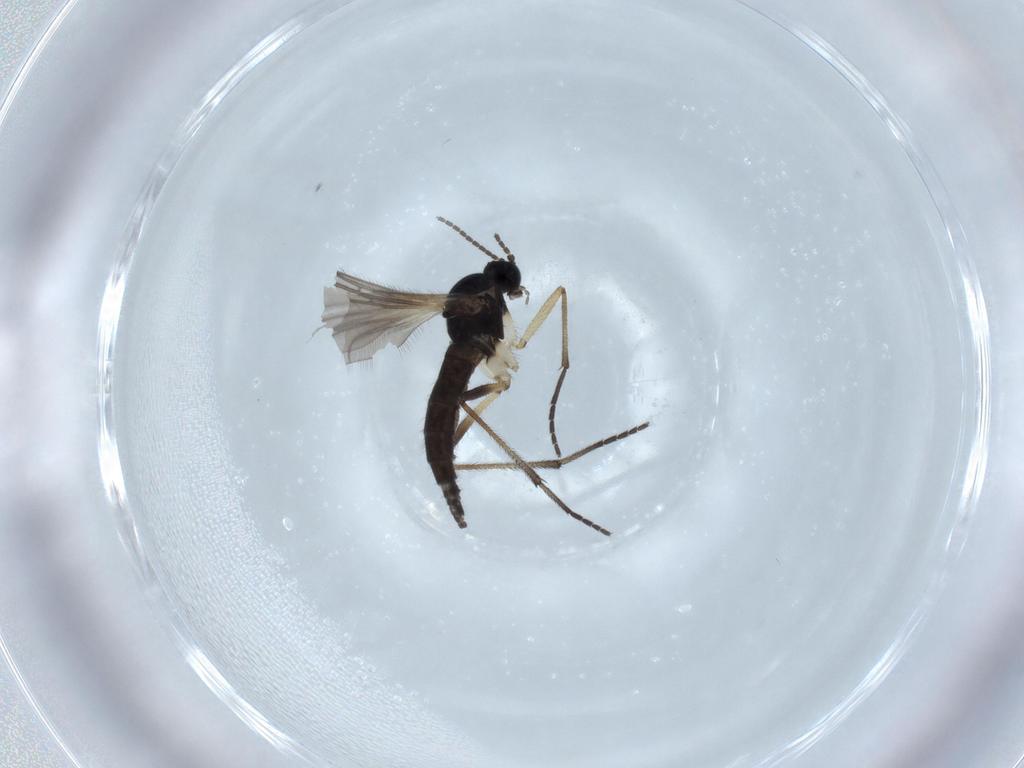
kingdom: Animalia
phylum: Arthropoda
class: Insecta
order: Diptera
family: Sciaridae
